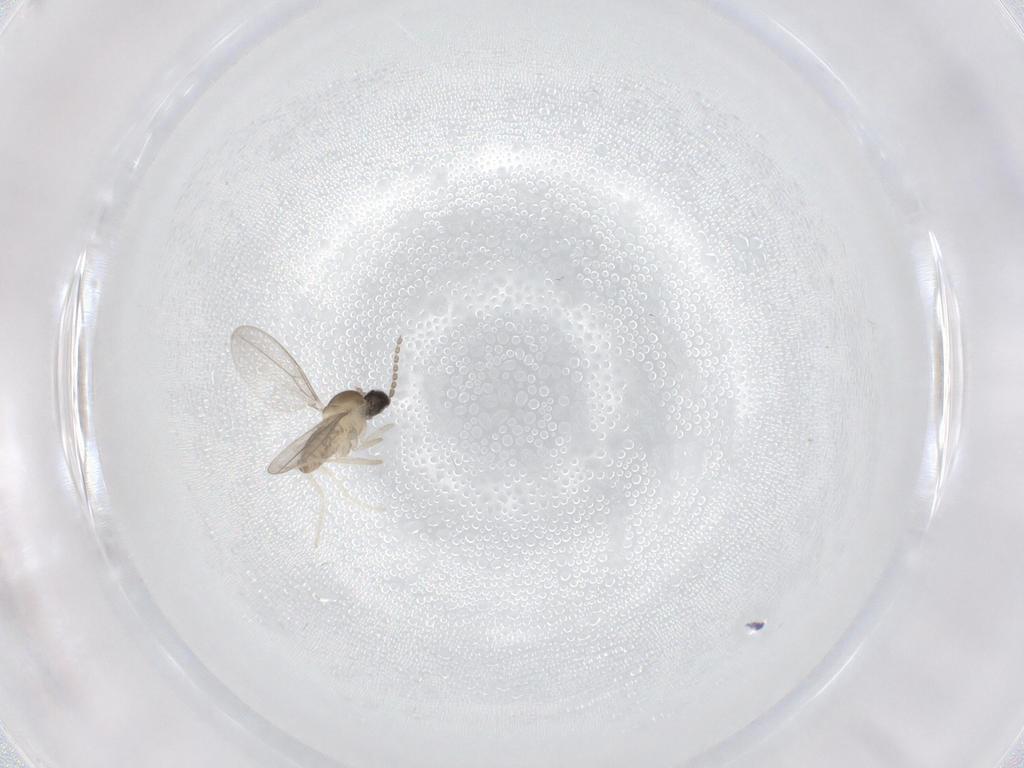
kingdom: Animalia
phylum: Arthropoda
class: Insecta
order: Diptera
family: Cecidomyiidae
